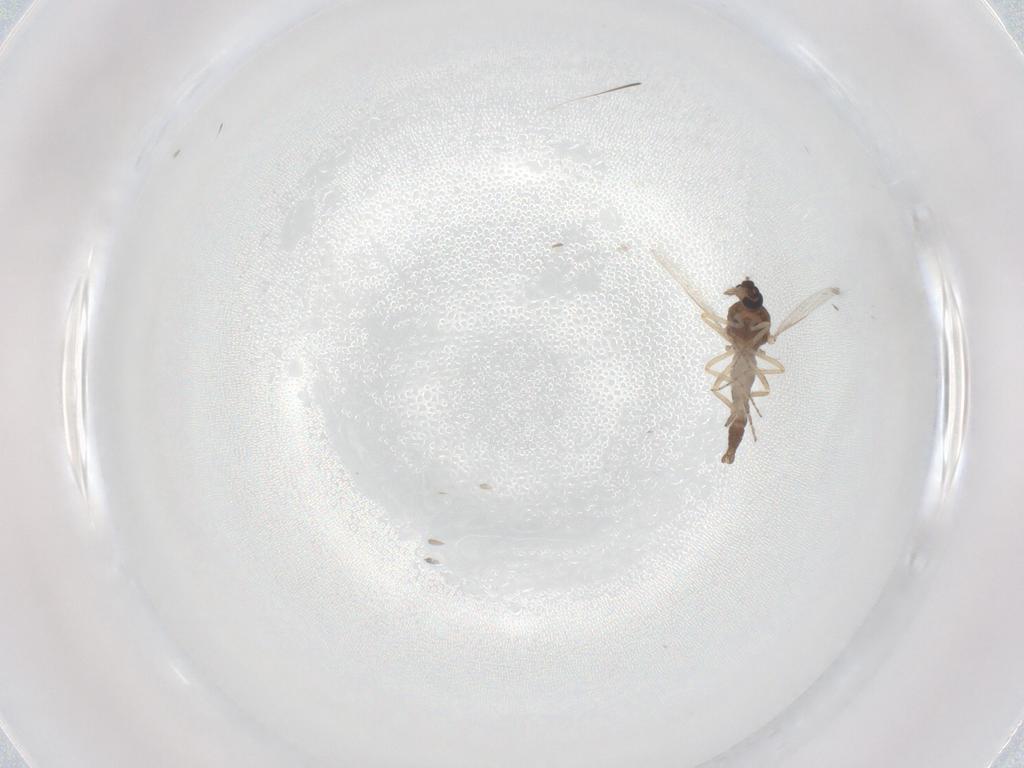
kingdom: Animalia
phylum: Arthropoda
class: Insecta
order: Diptera
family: Ceratopogonidae
